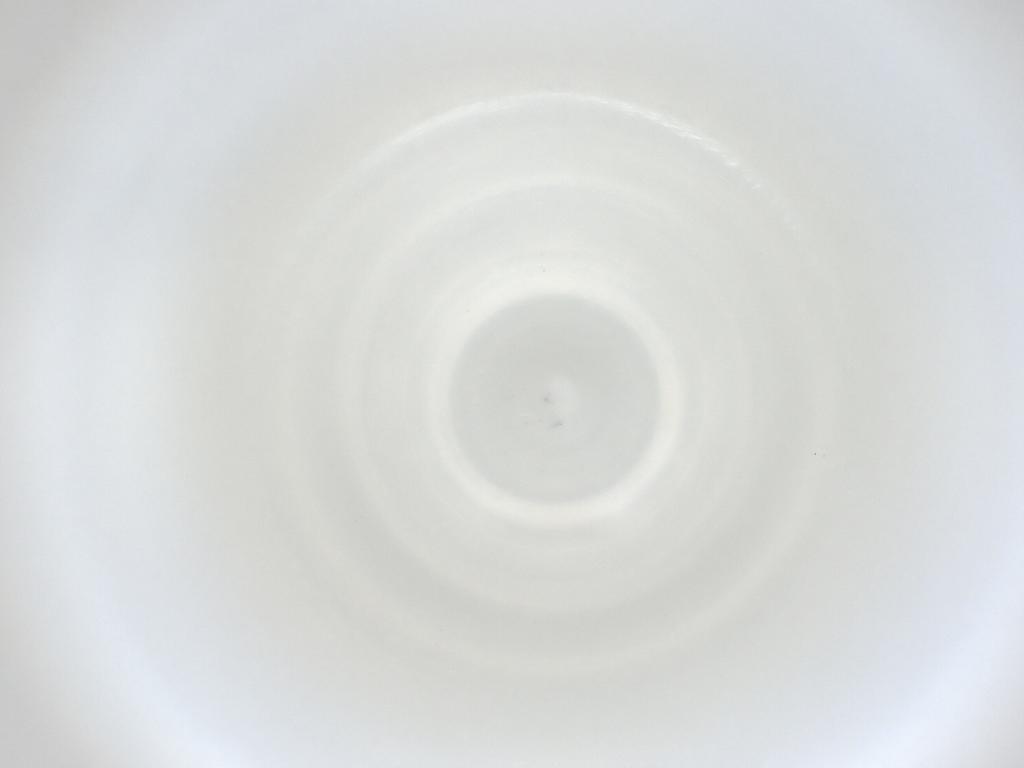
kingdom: Animalia
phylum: Arthropoda
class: Insecta
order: Diptera
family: Cecidomyiidae
